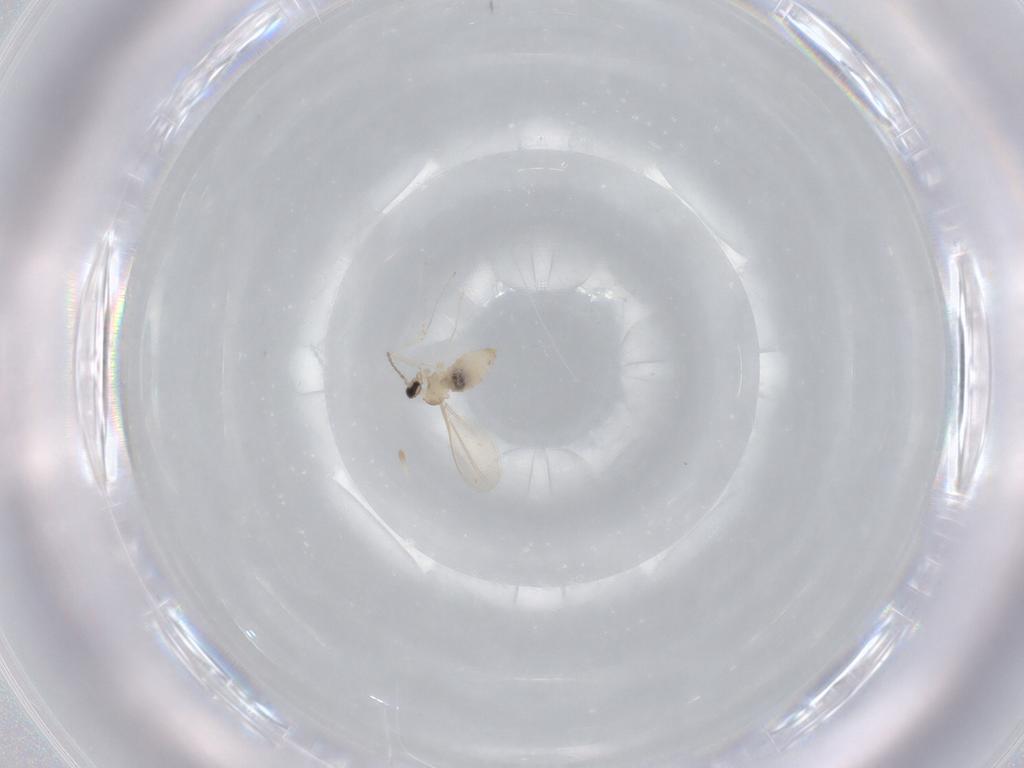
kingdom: Animalia
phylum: Arthropoda
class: Insecta
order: Diptera
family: Cecidomyiidae
